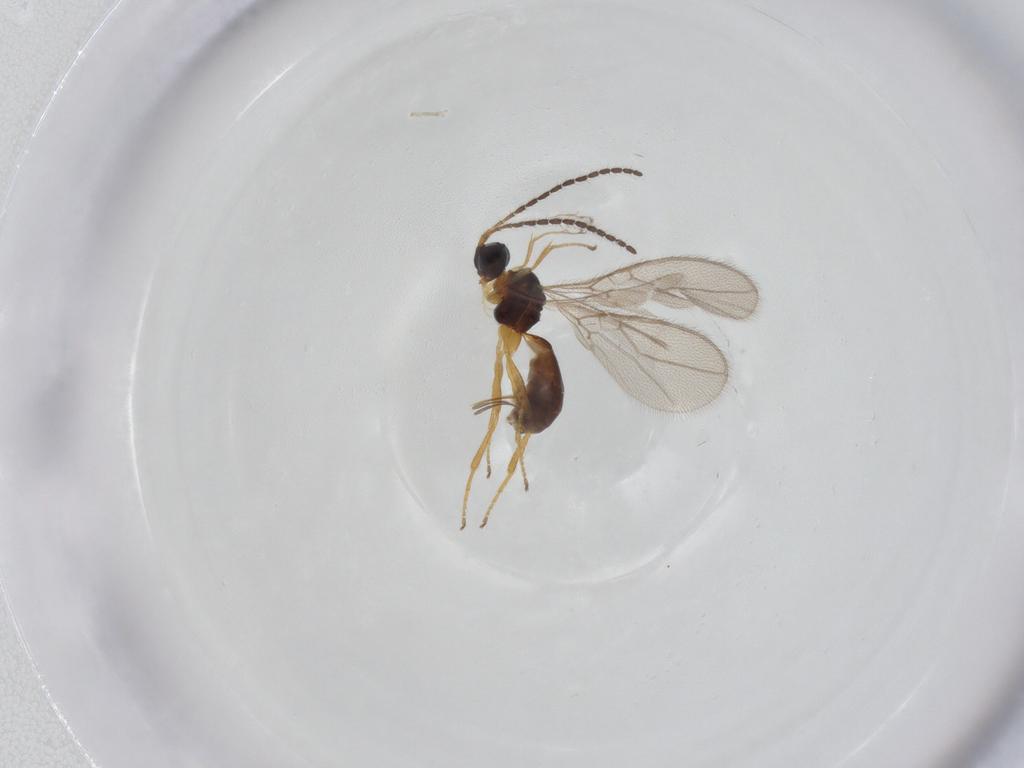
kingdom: Animalia
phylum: Arthropoda
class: Insecta
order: Hymenoptera
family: Braconidae
